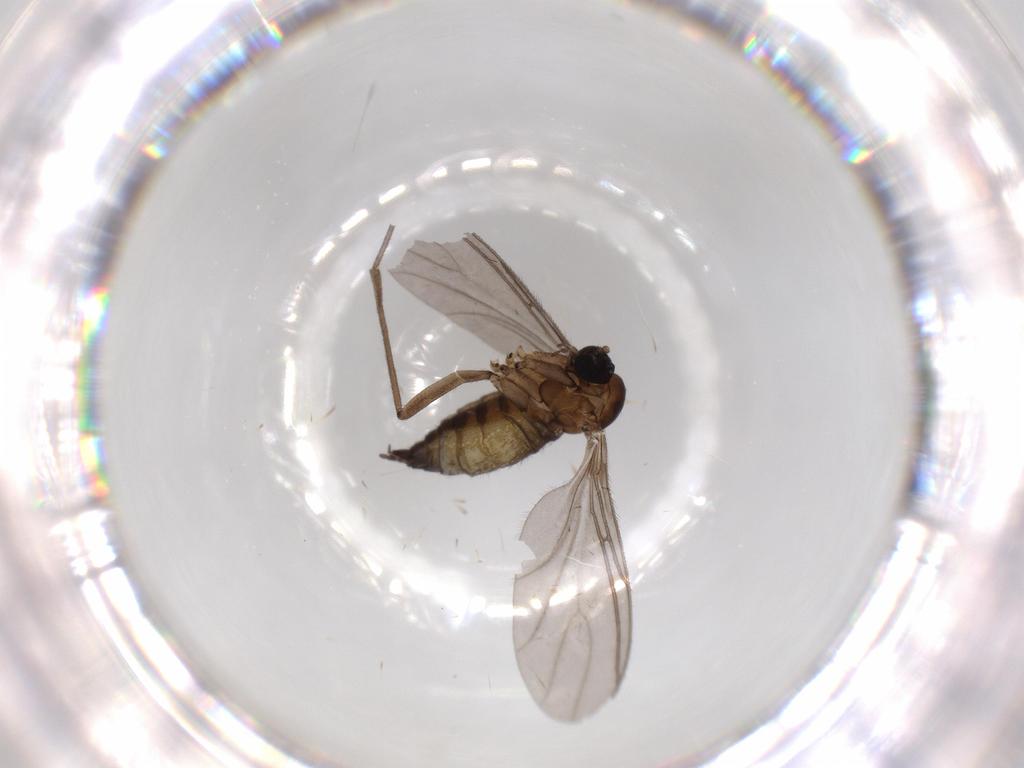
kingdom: Animalia
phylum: Arthropoda
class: Insecta
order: Diptera
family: Sciaridae
